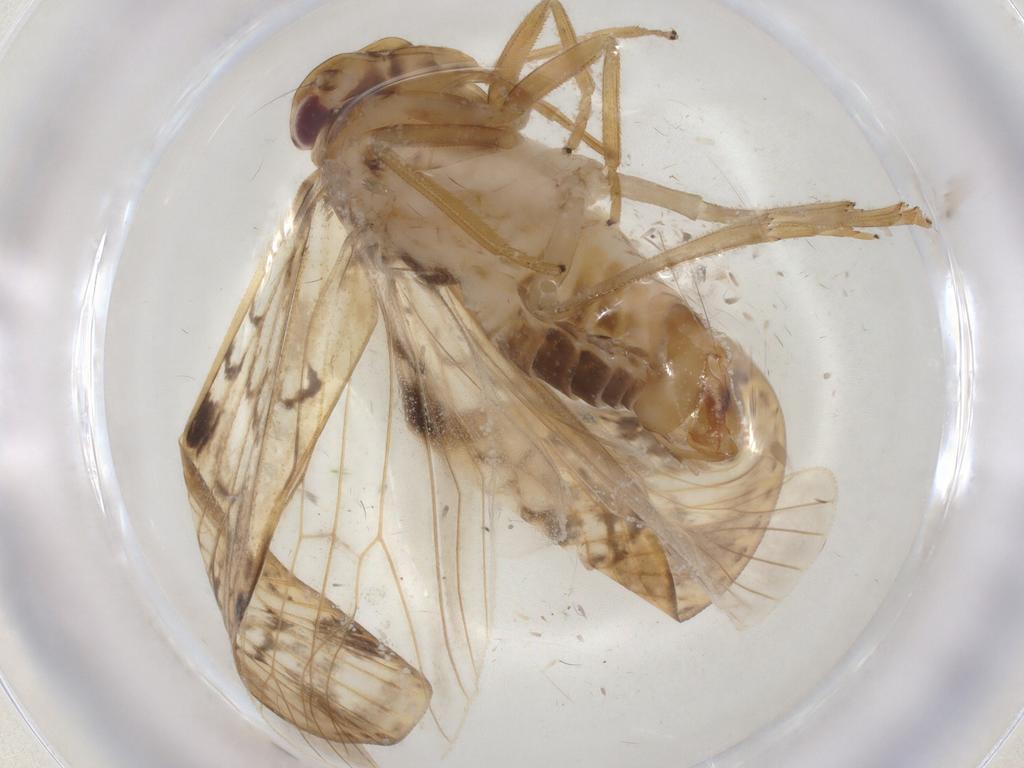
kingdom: Animalia
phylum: Arthropoda
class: Insecta
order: Hemiptera
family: Cixiidae
